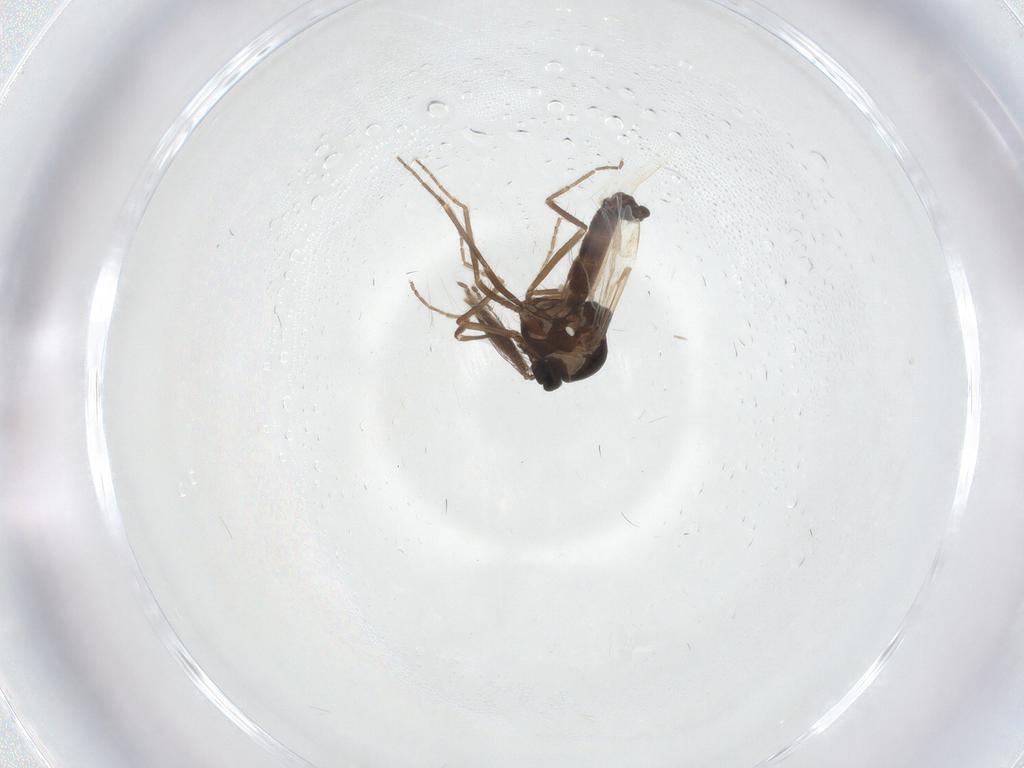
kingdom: Animalia
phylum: Arthropoda
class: Insecta
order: Diptera
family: Ceratopogonidae
